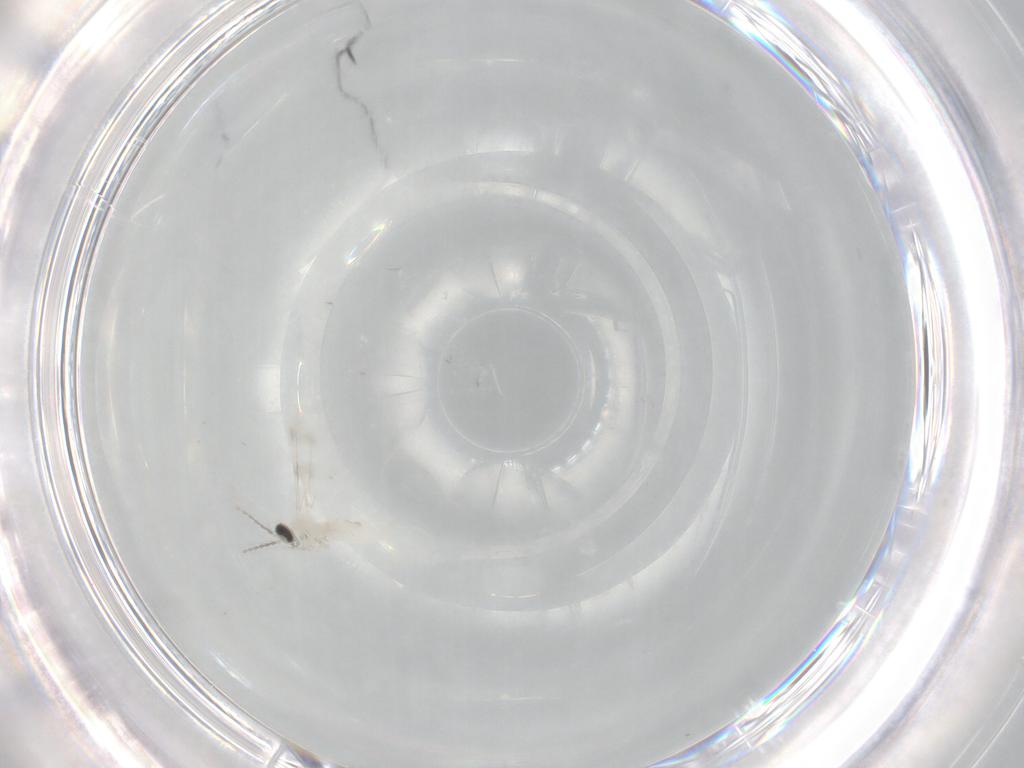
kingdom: Animalia
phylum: Arthropoda
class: Insecta
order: Diptera
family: Cecidomyiidae
